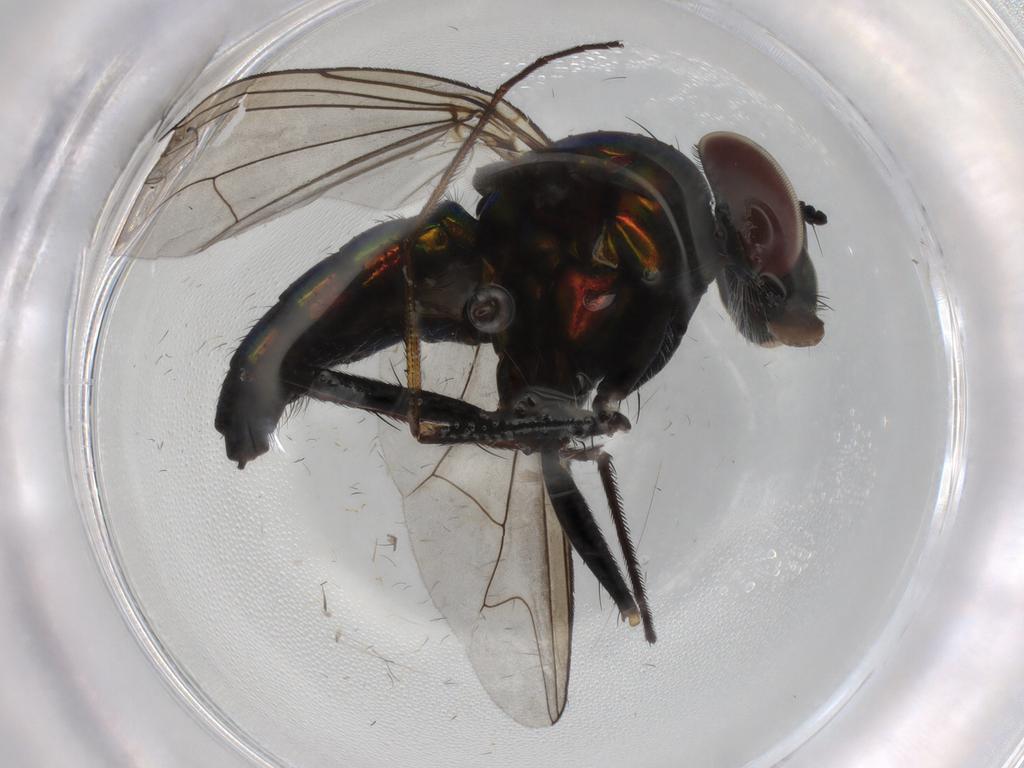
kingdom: Animalia
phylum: Arthropoda
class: Insecta
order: Diptera
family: Dolichopodidae
